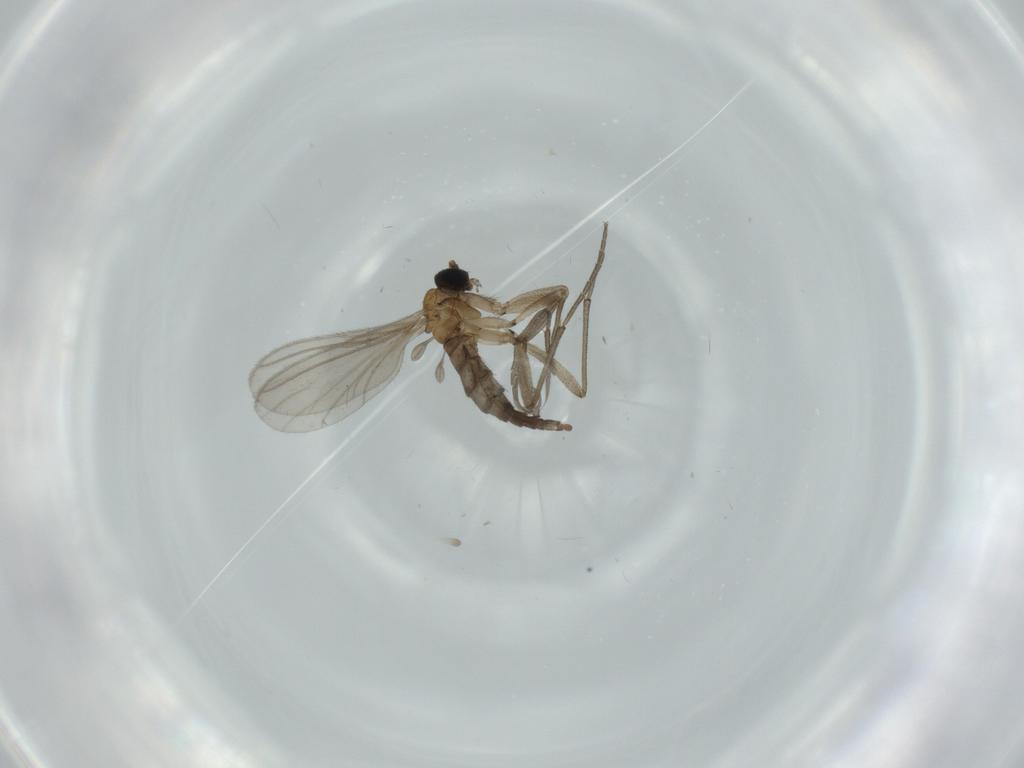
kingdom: Animalia
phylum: Arthropoda
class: Insecta
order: Diptera
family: Sciaridae
